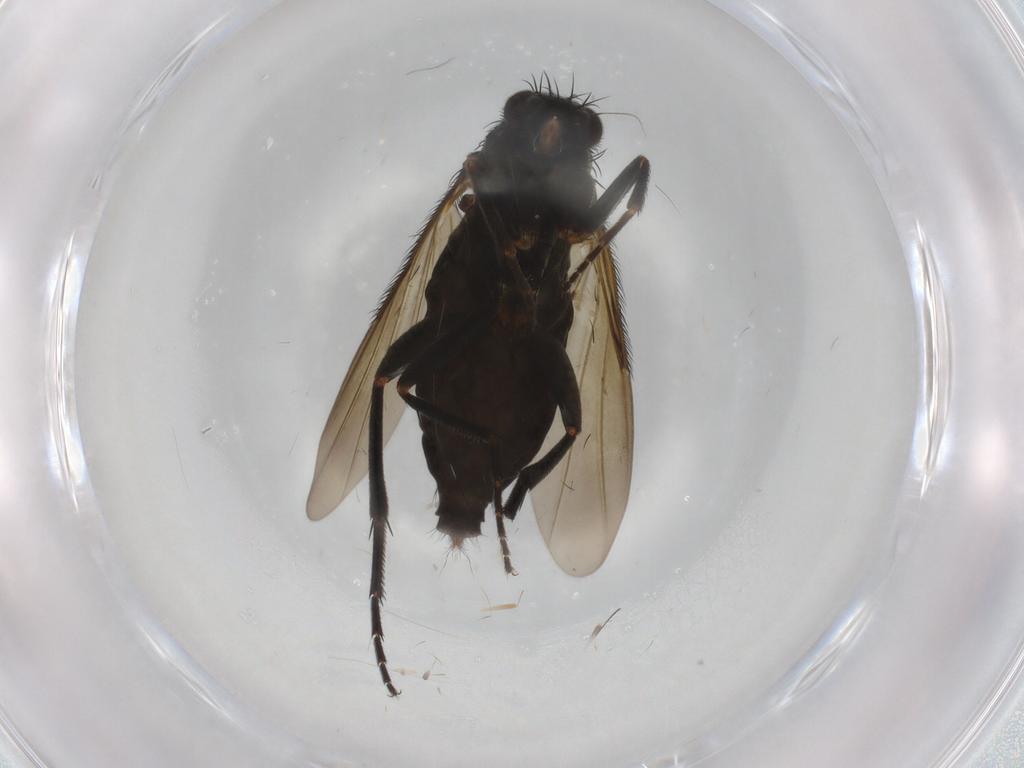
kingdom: Animalia
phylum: Arthropoda
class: Insecta
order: Diptera
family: Phoridae
